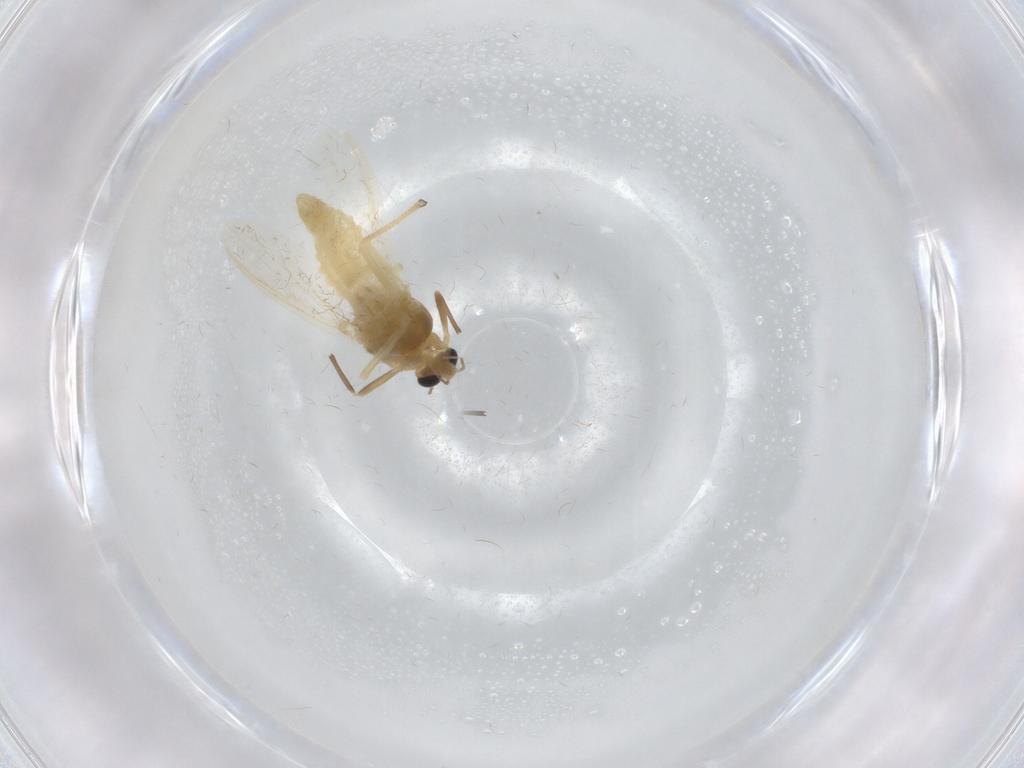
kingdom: Animalia
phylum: Arthropoda
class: Insecta
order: Diptera
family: Chironomidae
